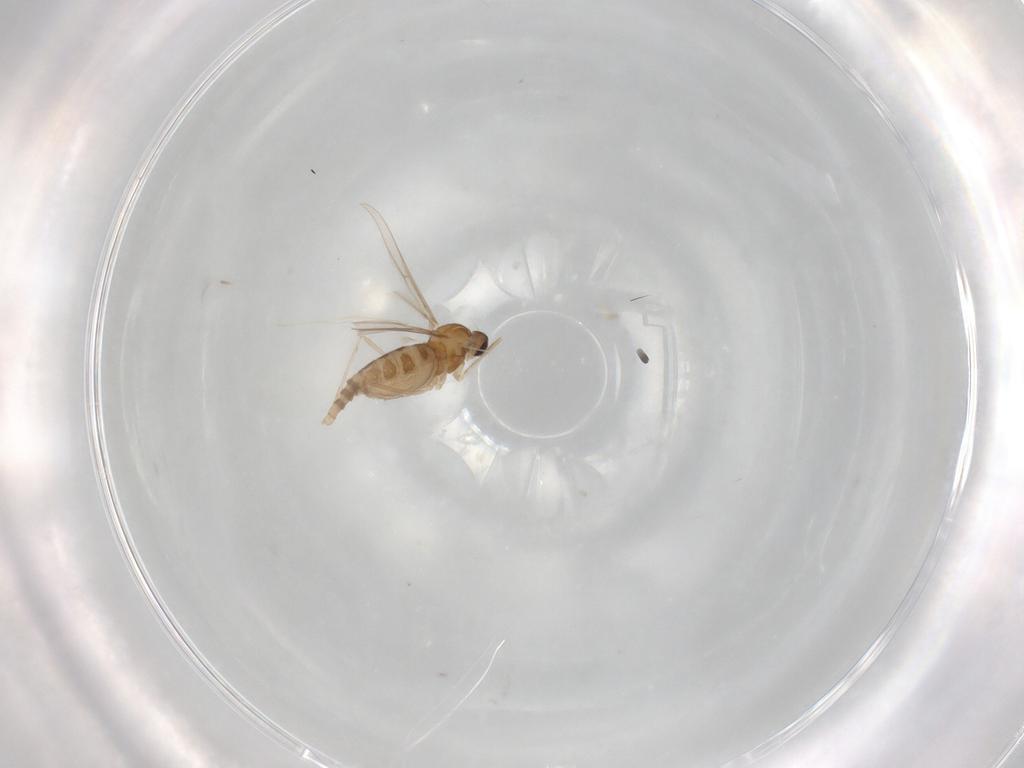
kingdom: Animalia
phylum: Arthropoda
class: Insecta
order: Diptera
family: Cecidomyiidae
